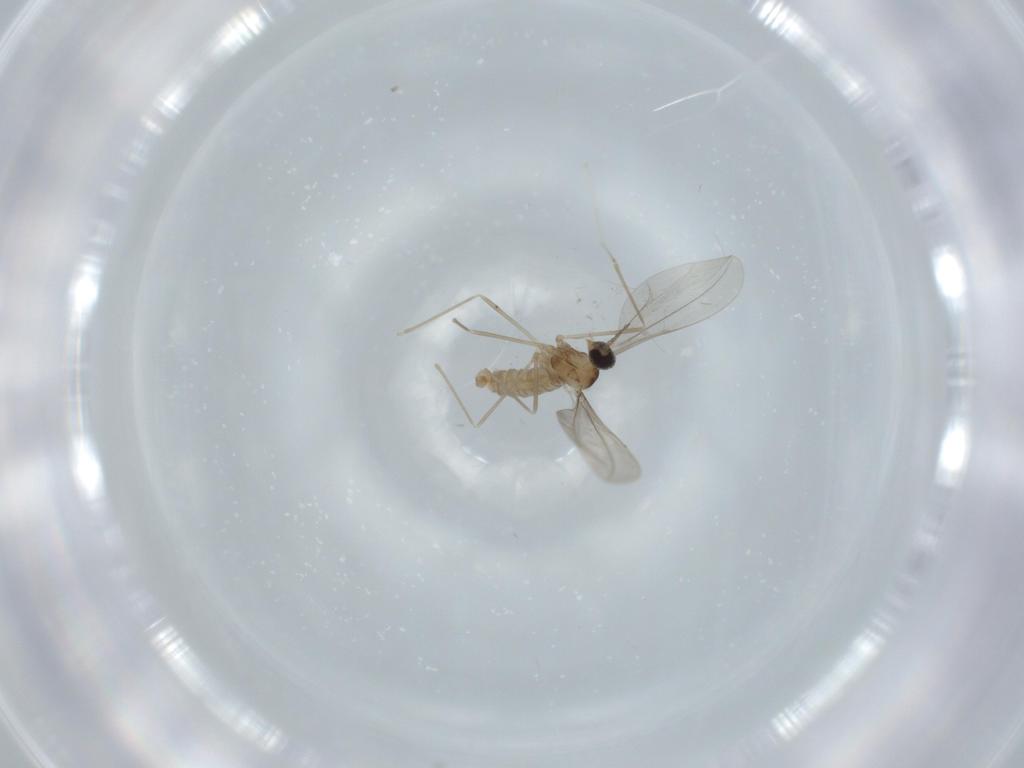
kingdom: Animalia
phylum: Arthropoda
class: Insecta
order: Diptera
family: Cecidomyiidae
